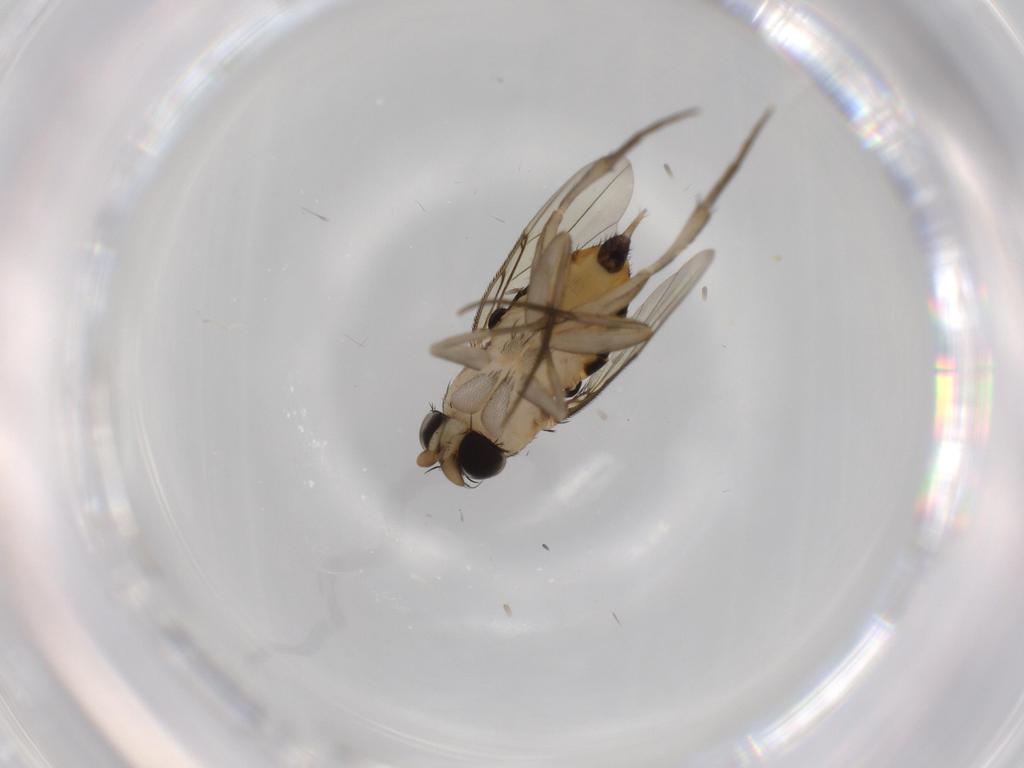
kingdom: Animalia
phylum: Arthropoda
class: Insecta
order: Diptera
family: Phoridae
